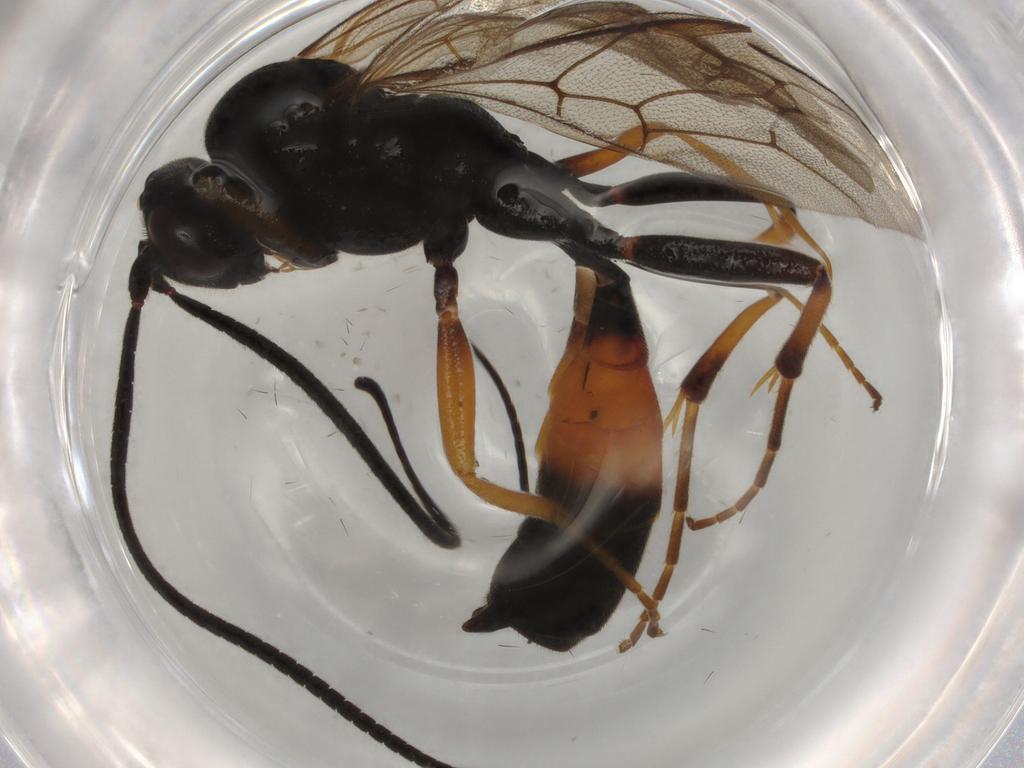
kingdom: Animalia
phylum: Arthropoda
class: Insecta
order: Hymenoptera
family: Ichneumonidae
